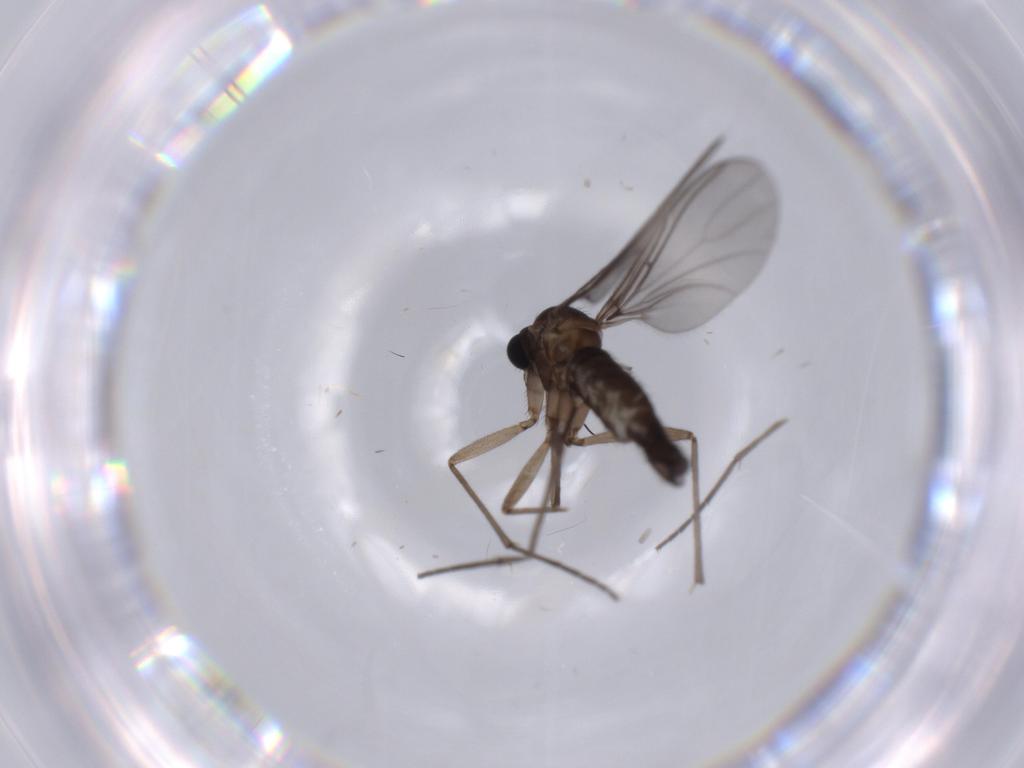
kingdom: Animalia
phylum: Arthropoda
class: Insecta
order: Diptera
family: Sciaridae
